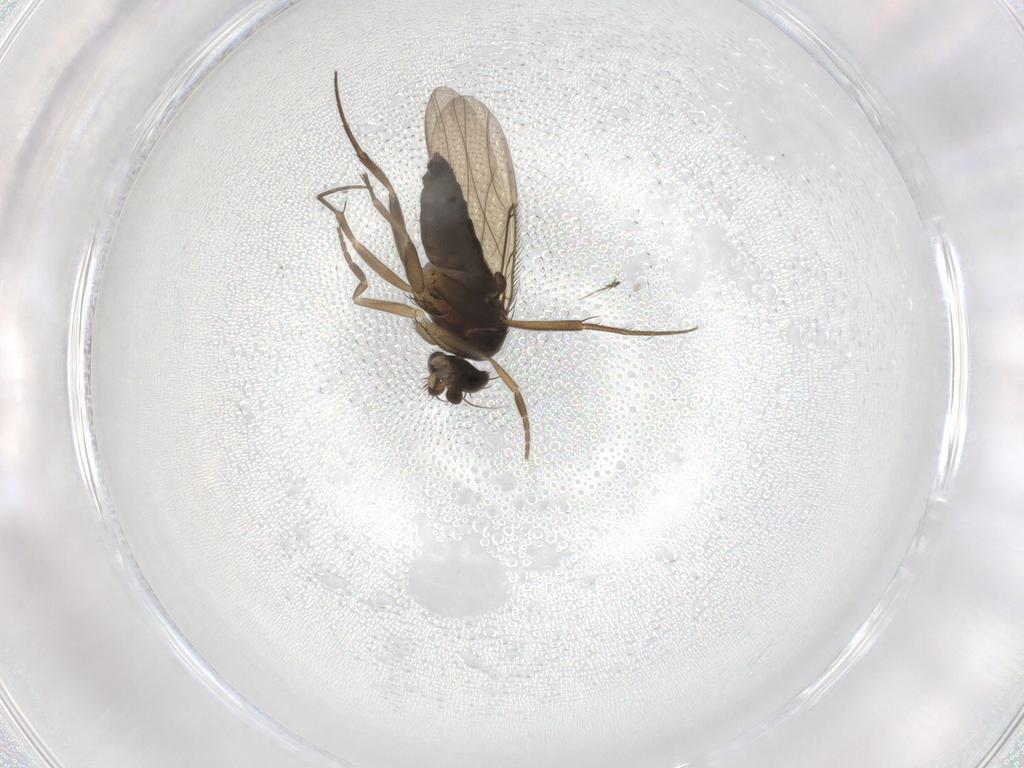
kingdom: Animalia
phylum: Arthropoda
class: Insecta
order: Diptera
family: Phoridae
